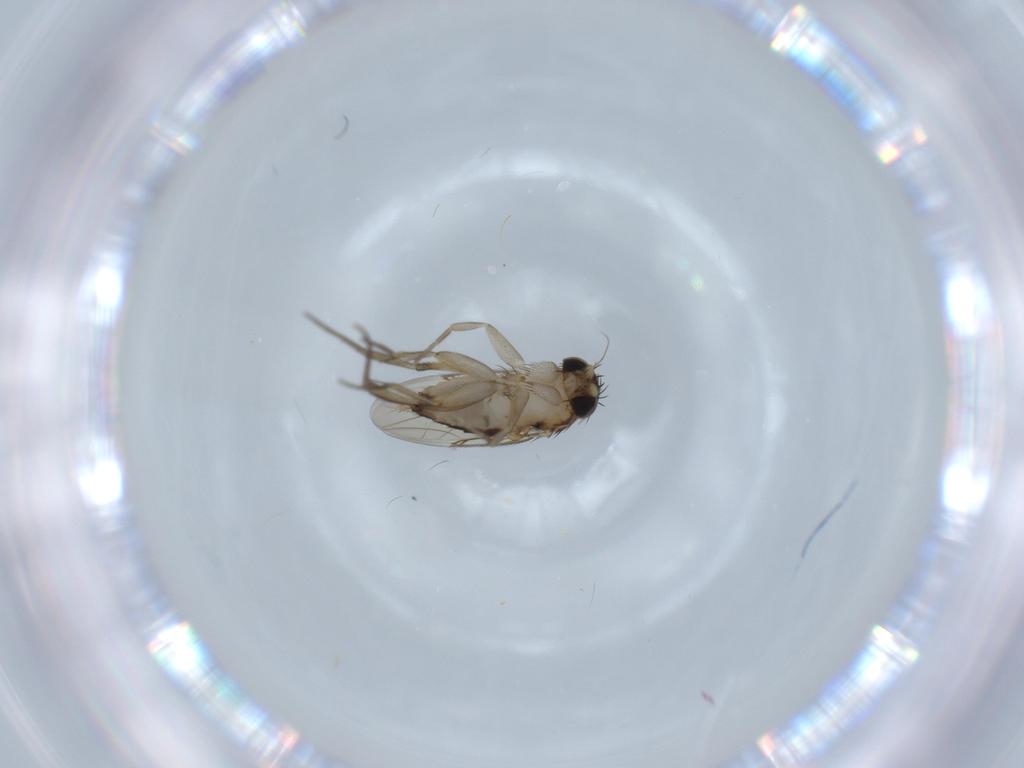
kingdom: Animalia
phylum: Arthropoda
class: Insecta
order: Diptera
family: Phoridae
